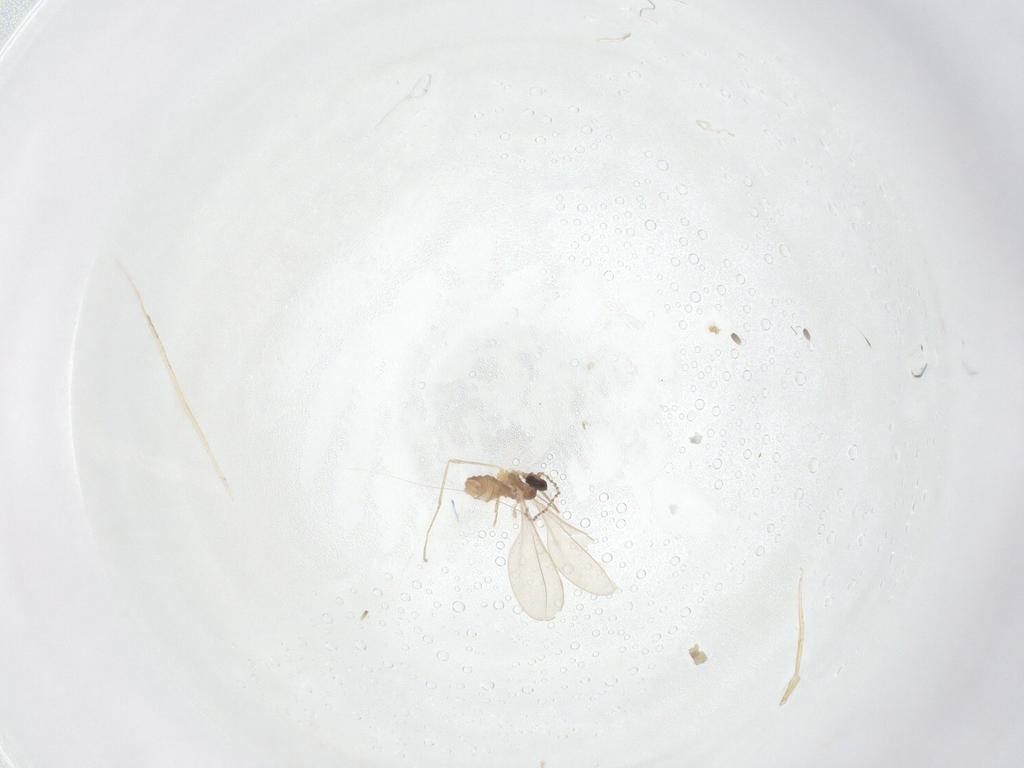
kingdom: Animalia
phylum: Arthropoda
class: Insecta
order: Diptera
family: Cecidomyiidae
